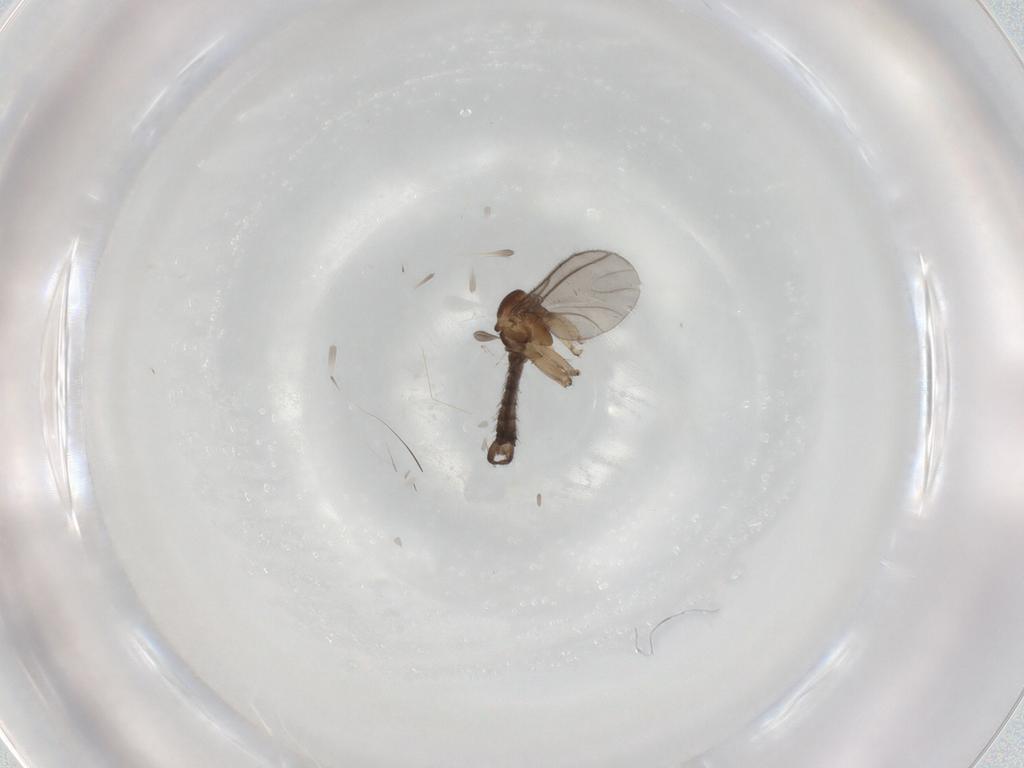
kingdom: Animalia
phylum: Arthropoda
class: Insecta
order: Diptera
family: Sciaridae
